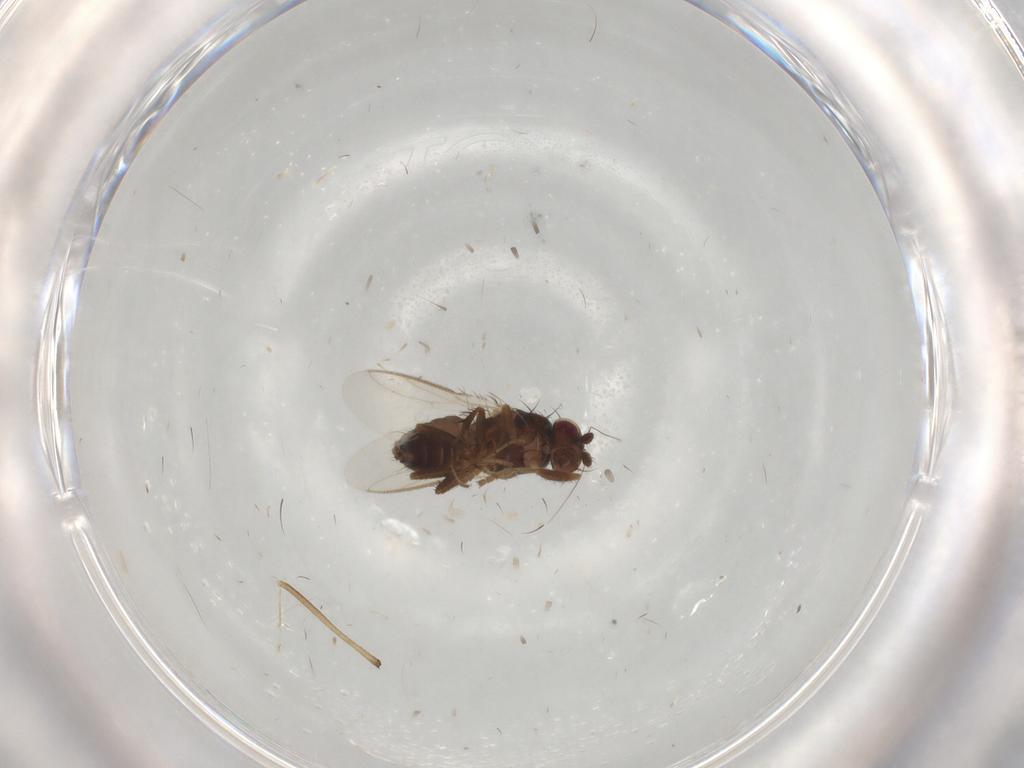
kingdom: Animalia
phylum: Arthropoda
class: Insecta
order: Diptera
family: Sphaeroceridae
